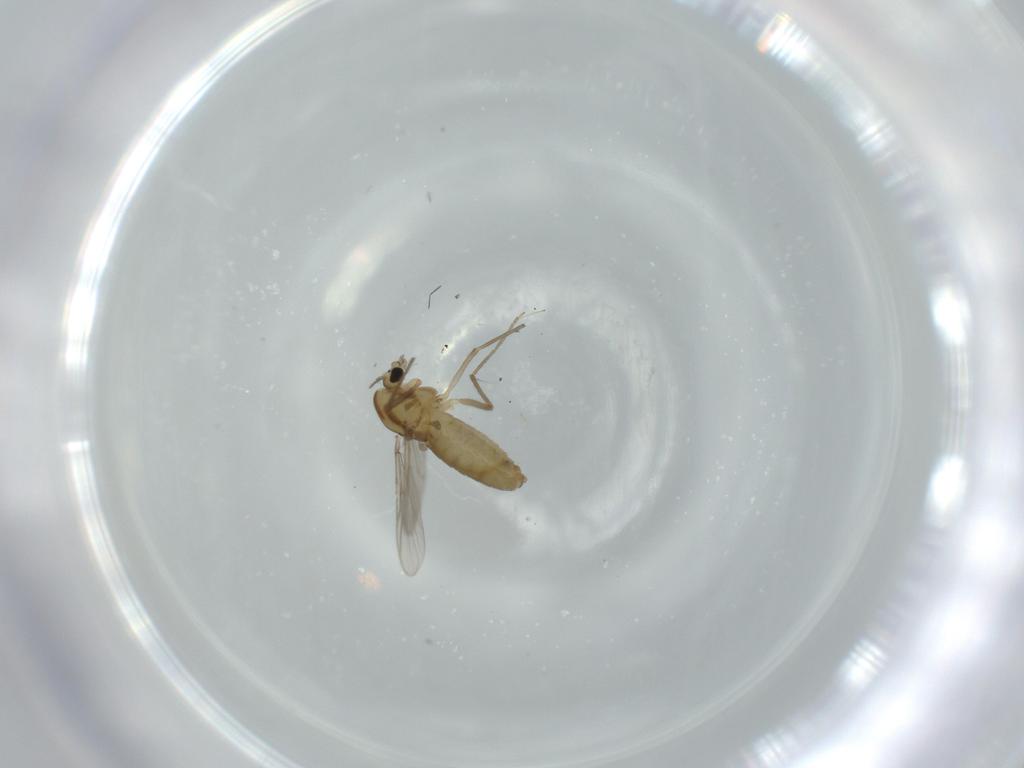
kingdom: Animalia
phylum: Arthropoda
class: Insecta
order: Diptera
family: Chironomidae
